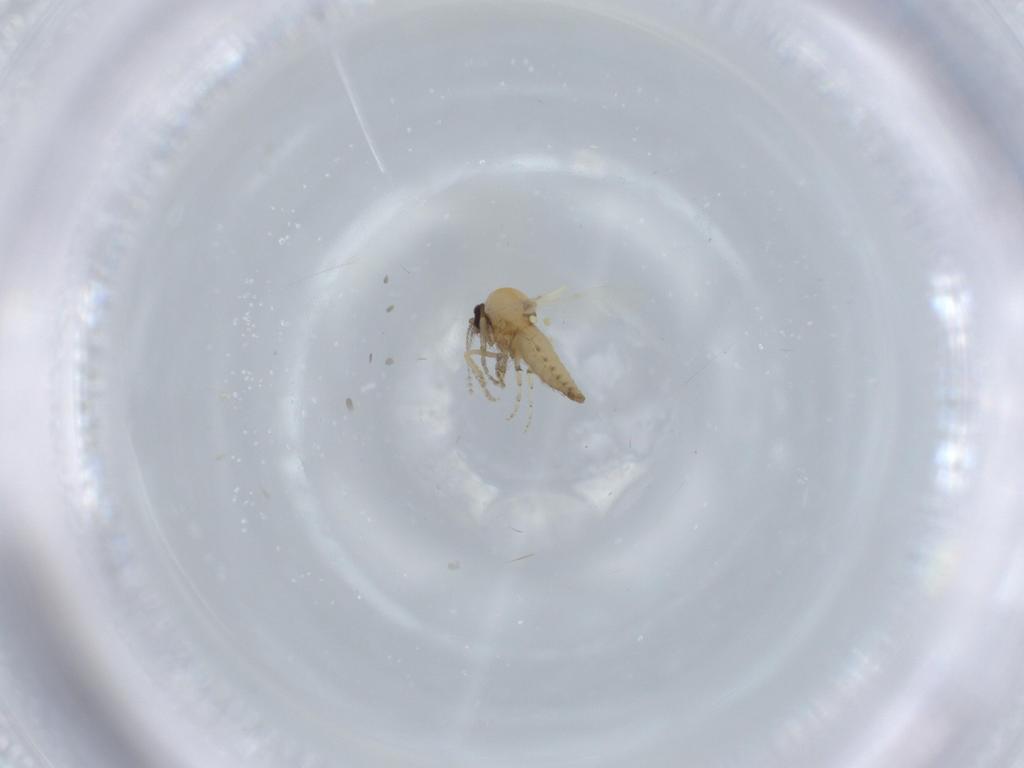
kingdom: Animalia
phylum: Arthropoda
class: Insecta
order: Diptera
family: Ceratopogonidae
